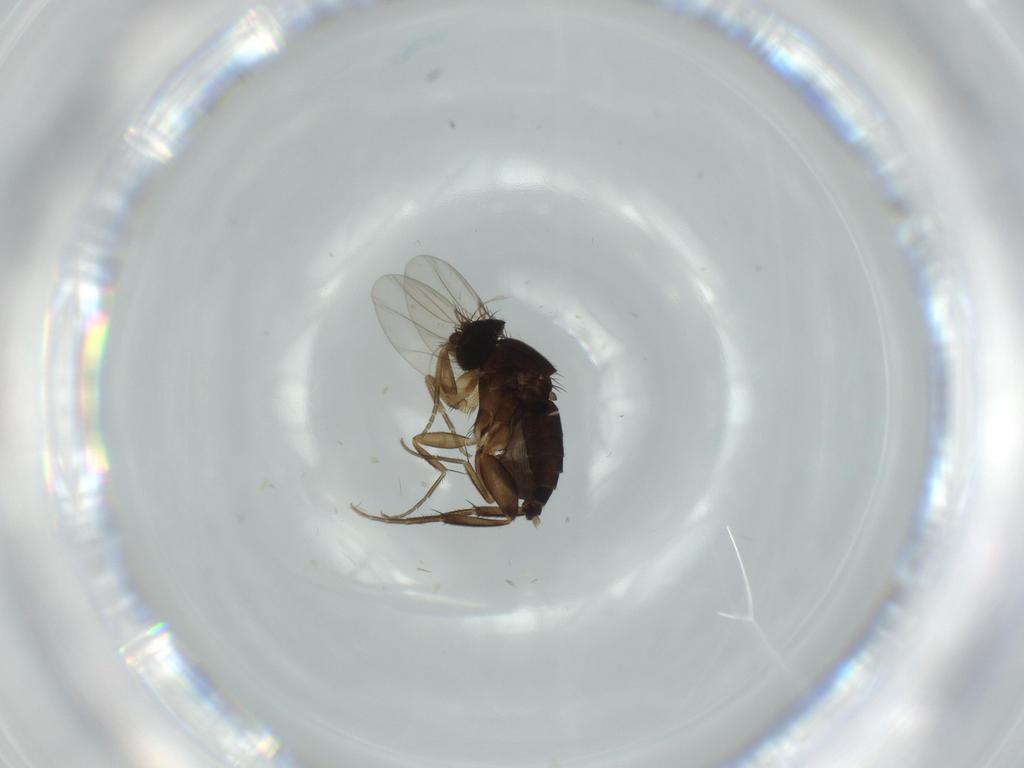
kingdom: Animalia
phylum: Arthropoda
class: Insecta
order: Diptera
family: Phoridae
